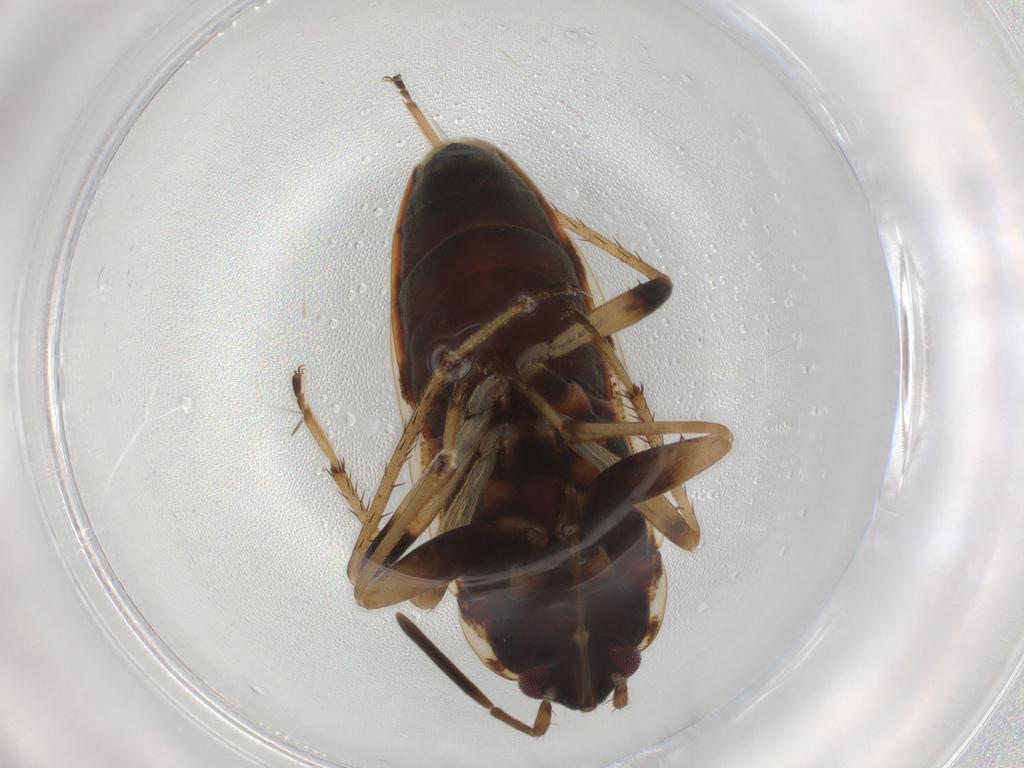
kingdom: Animalia
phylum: Arthropoda
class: Insecta
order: Hemiptera
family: Rhyparochromidae
